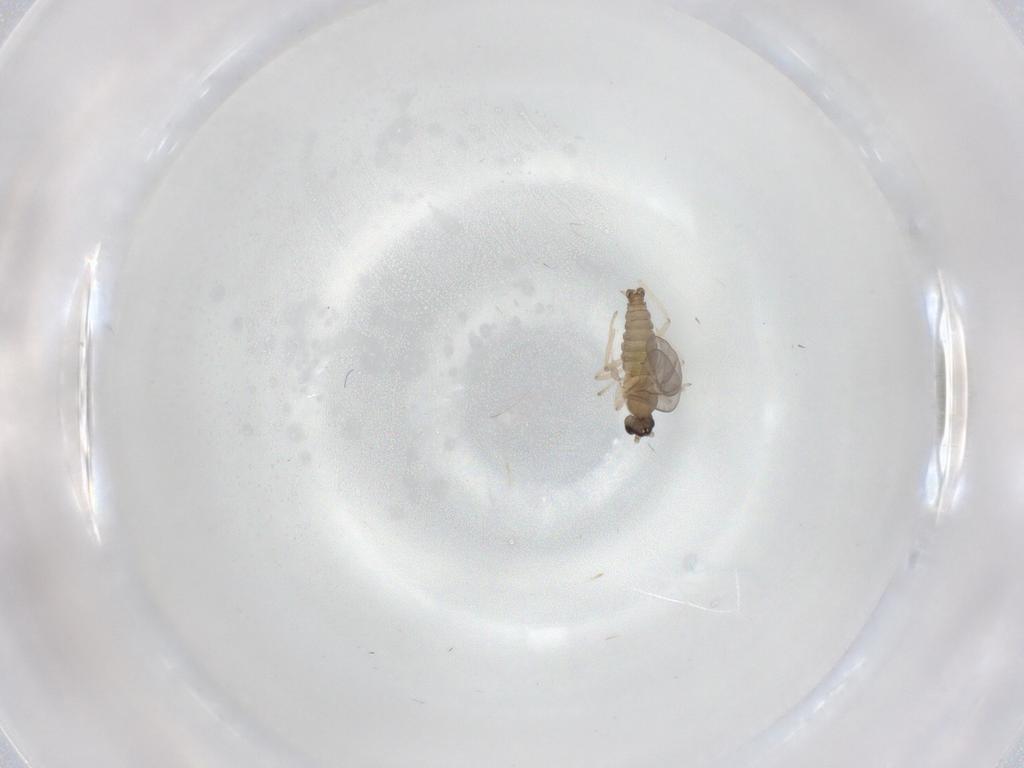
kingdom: Animalia
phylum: Arthropoda
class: Insecta
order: Diptera
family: Cecidomyiidae
